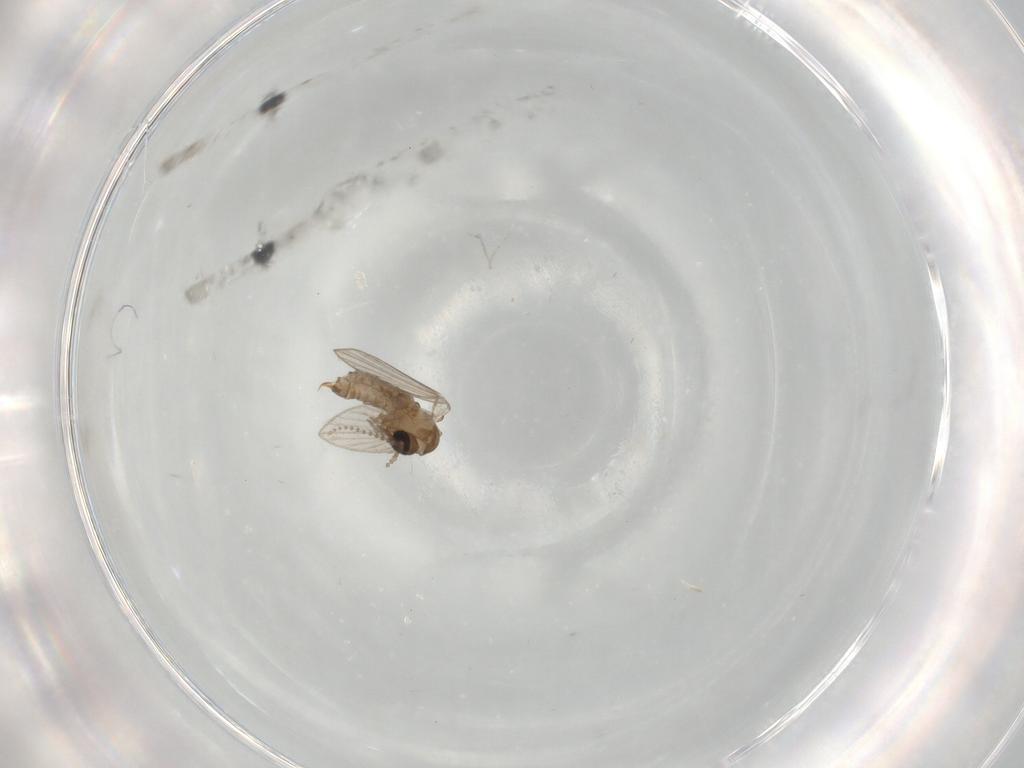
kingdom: Animalia
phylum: Arthropoda
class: Insecta
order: Diptera
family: Psychodidae
